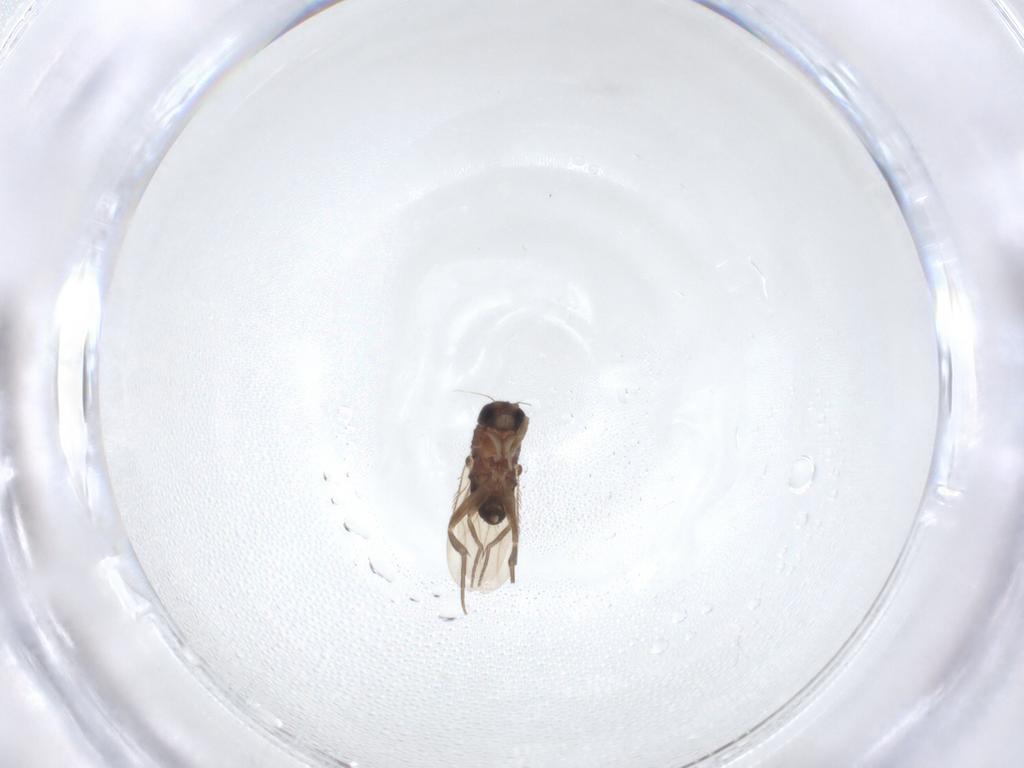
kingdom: Animalia
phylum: Arthropoda
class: Insecta
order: Diptera
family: Phoridae
